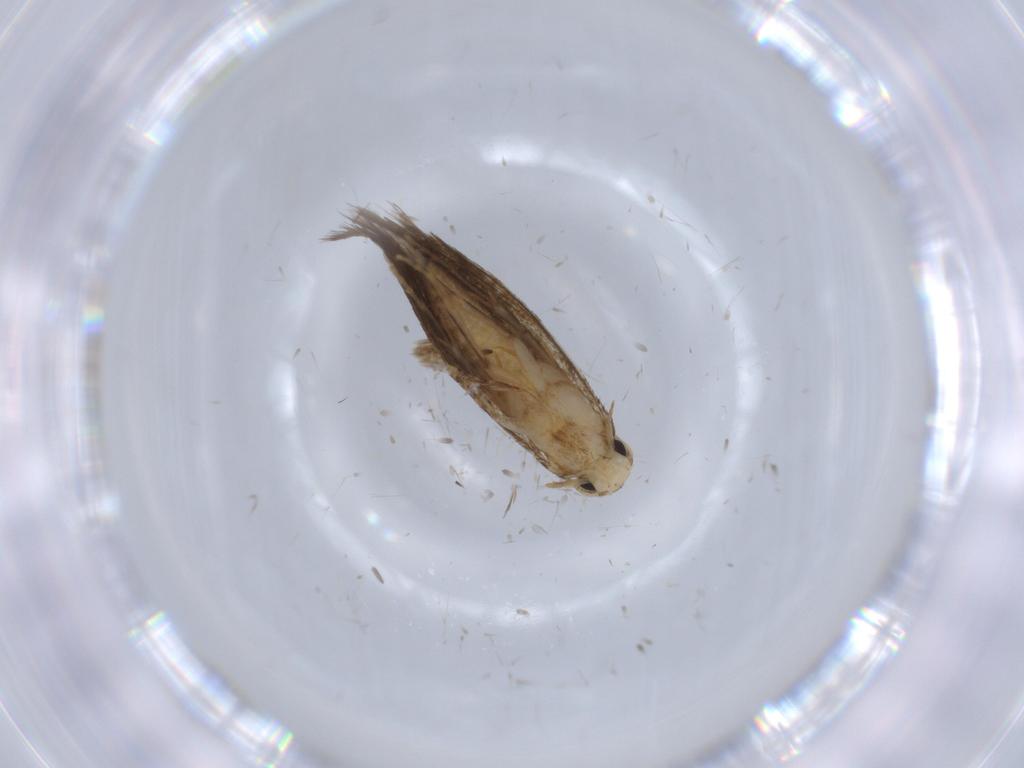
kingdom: Animalia
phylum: Arthropoda
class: Insecta
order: Lepidoptera
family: Tineidae
